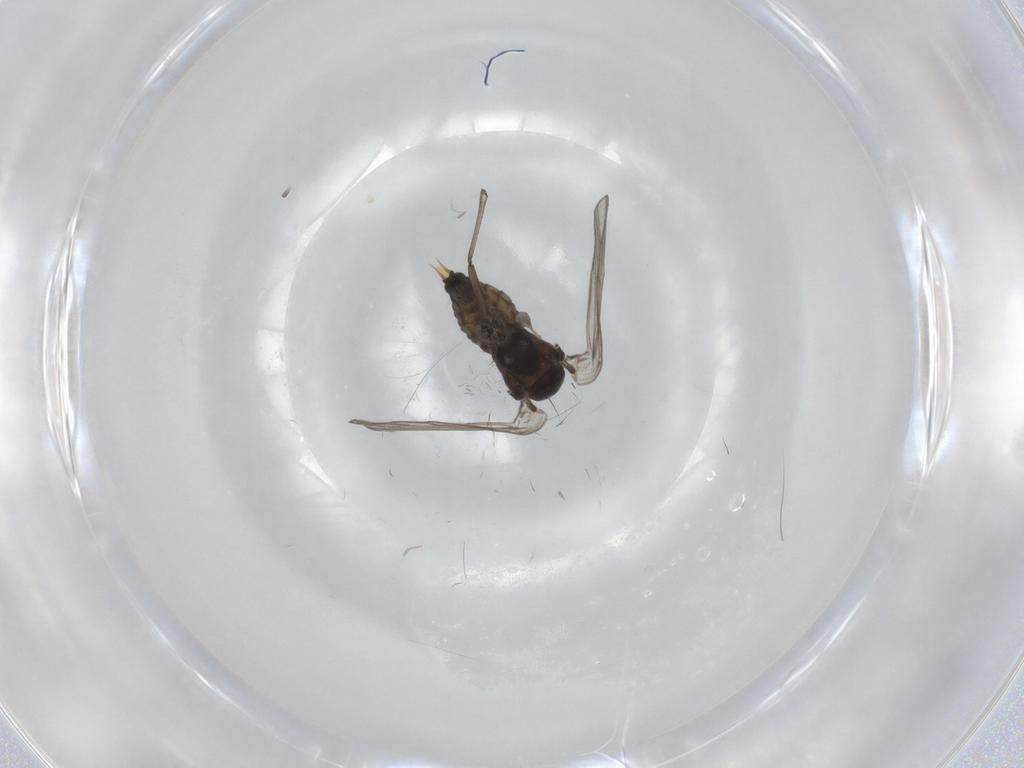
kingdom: Animalia
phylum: Arthropoda
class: Insecta
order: Diptera
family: Psychodidae
